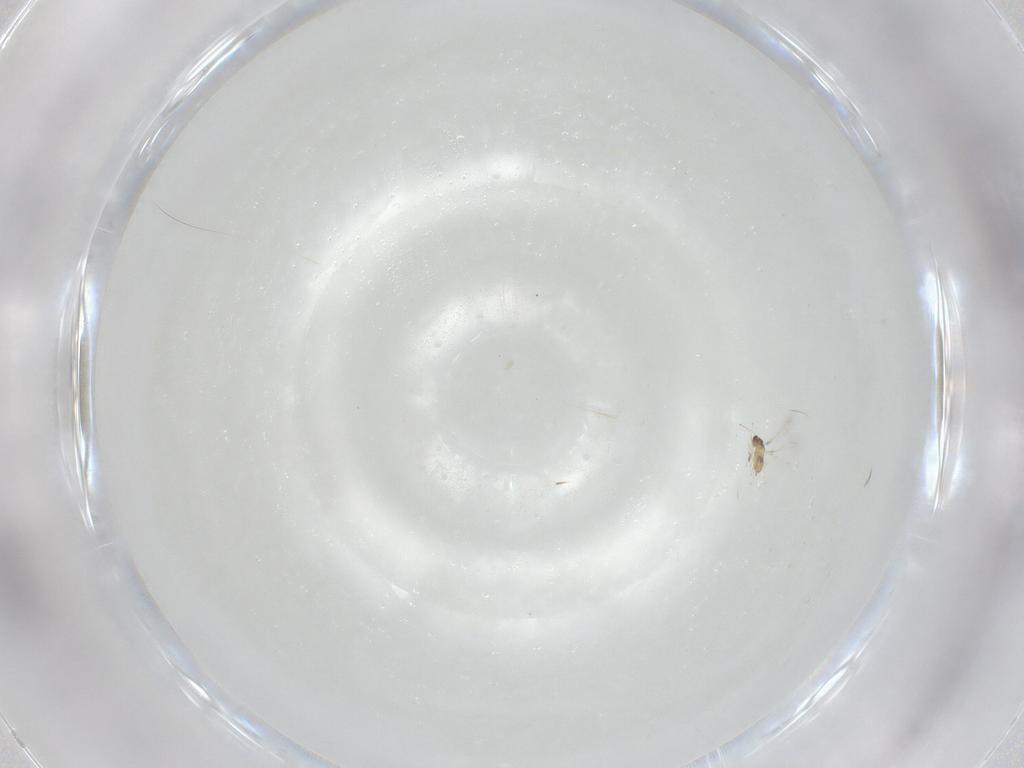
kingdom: Animalia
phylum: Arthropoda
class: Insecta
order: Hymenoptera
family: Mymaridae
